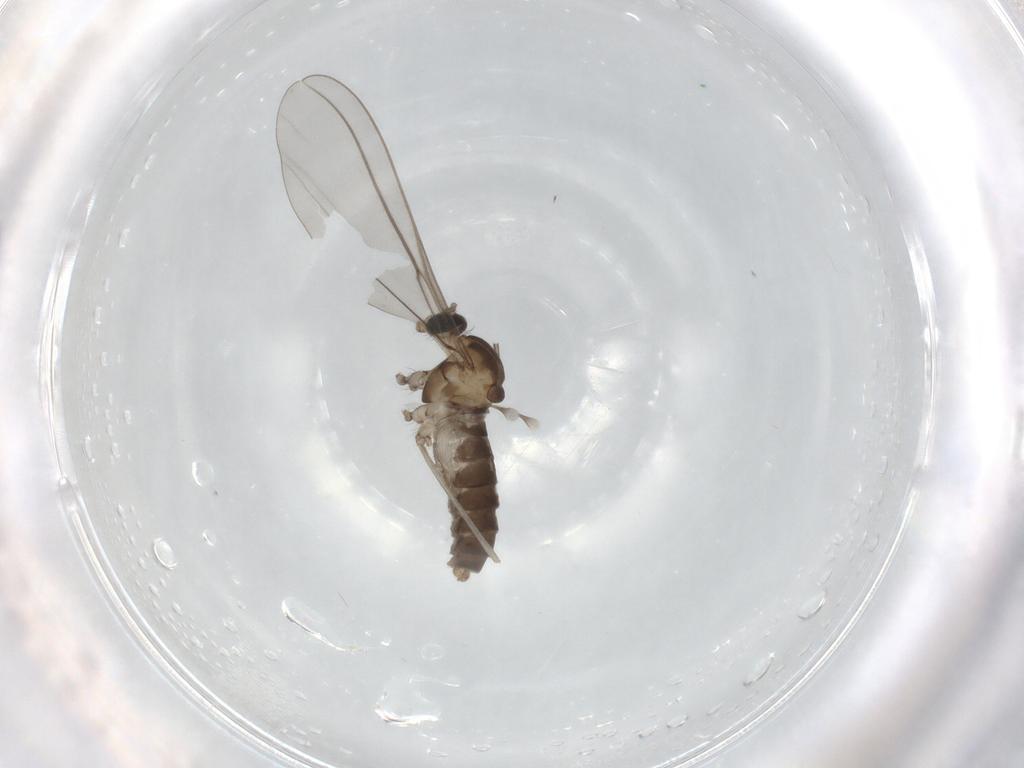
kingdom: Animalia
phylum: Arthropoda
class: Insecta
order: Diptera
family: Cecidomyiidae
